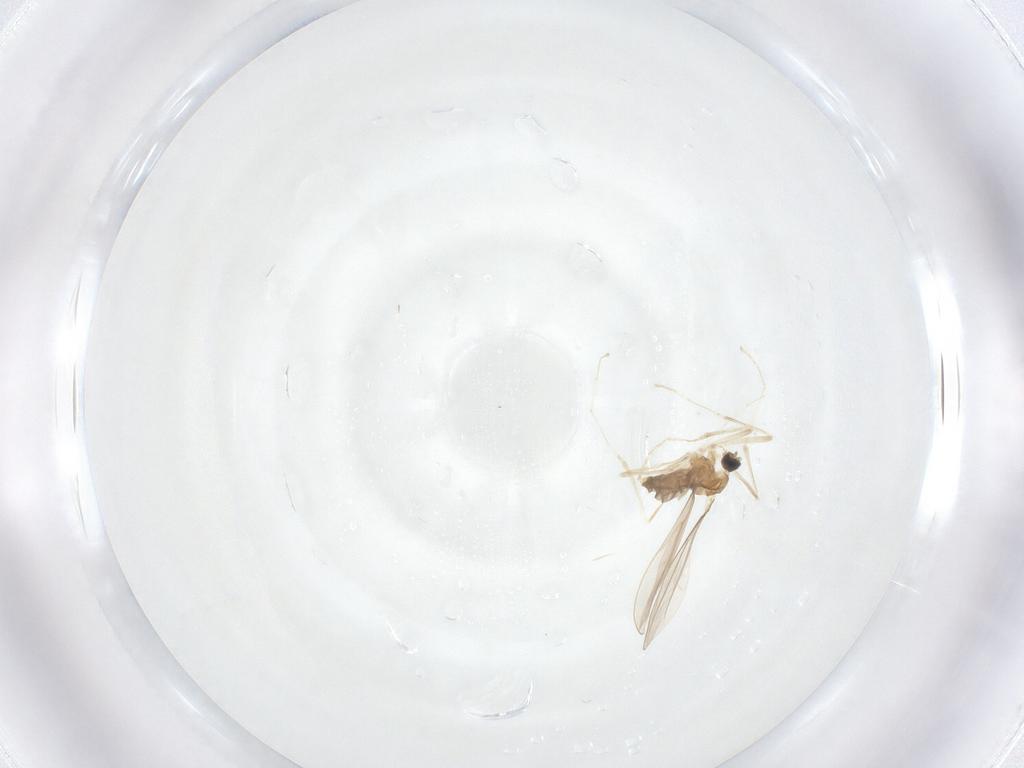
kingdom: Animalia
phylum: Arthropoda
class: Insecta
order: Diptera
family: Cecidomyiidae
